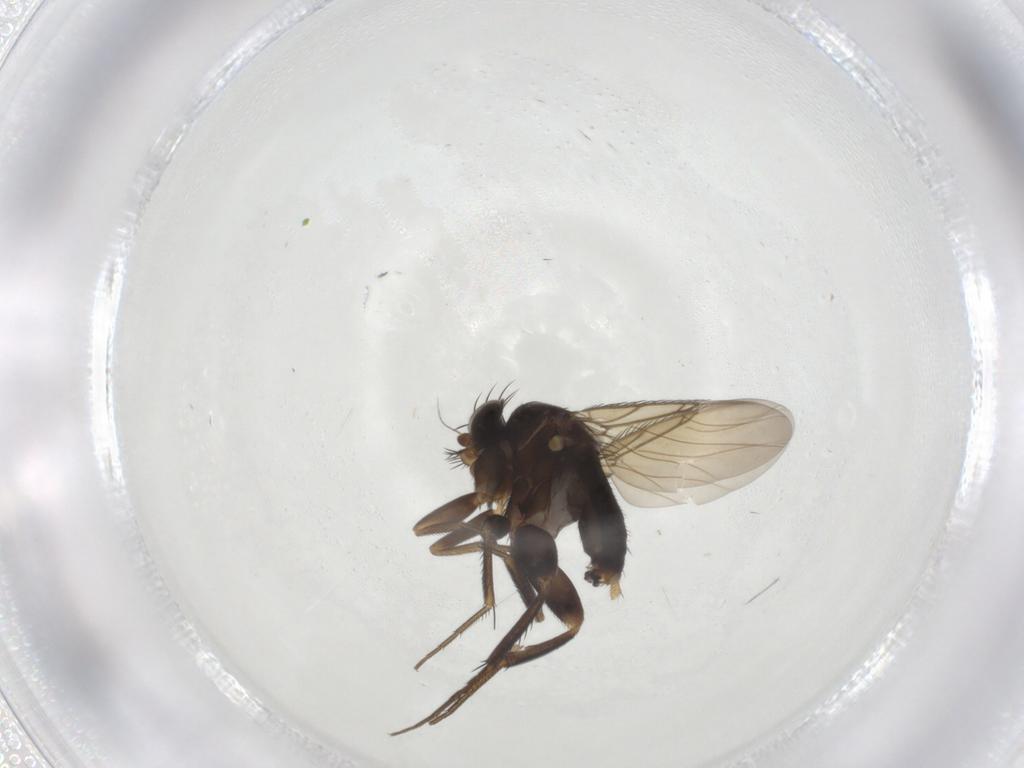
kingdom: Animalia
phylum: Arthropoda
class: Insecta
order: Diptera
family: Phoridae
